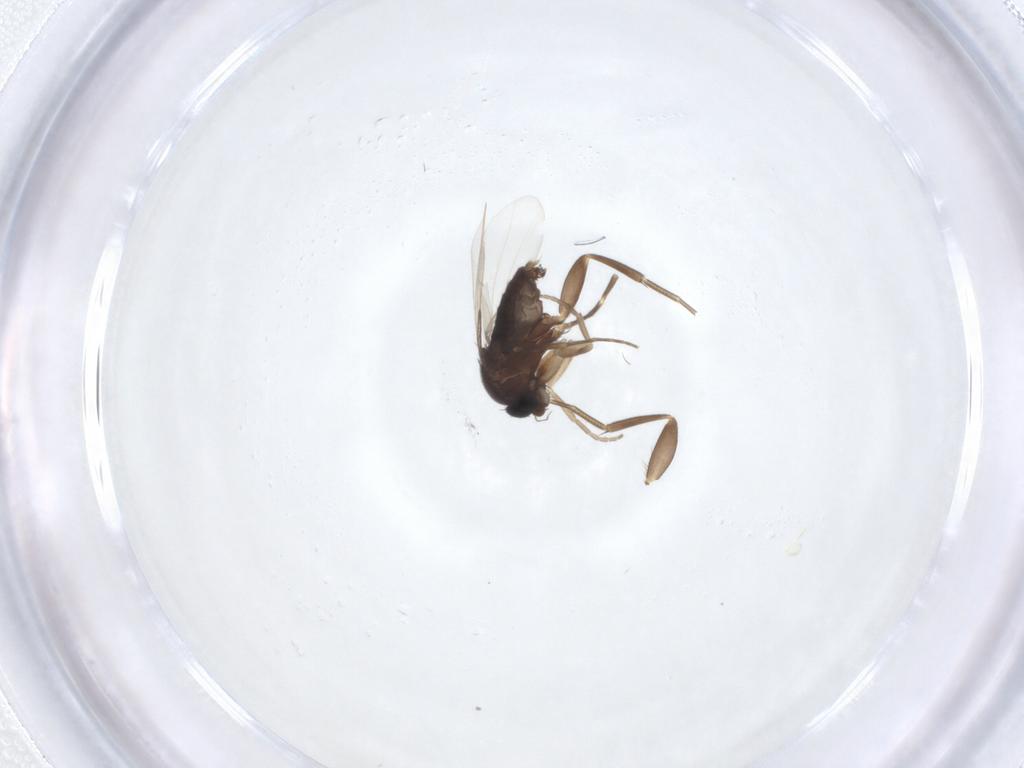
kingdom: Animalia
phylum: Arthropoda
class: Insecta
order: Diptera
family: Phoridae
